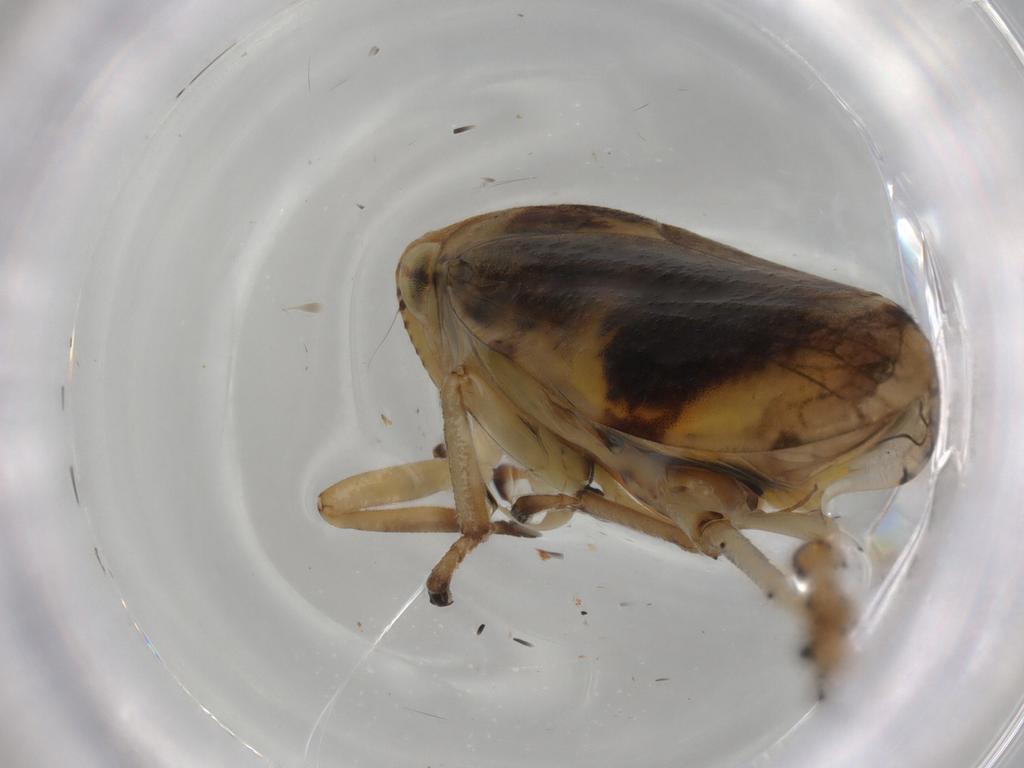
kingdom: Animalia
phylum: Arthropoda
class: Insecta
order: Hemiptera
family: Aphrophoridae
